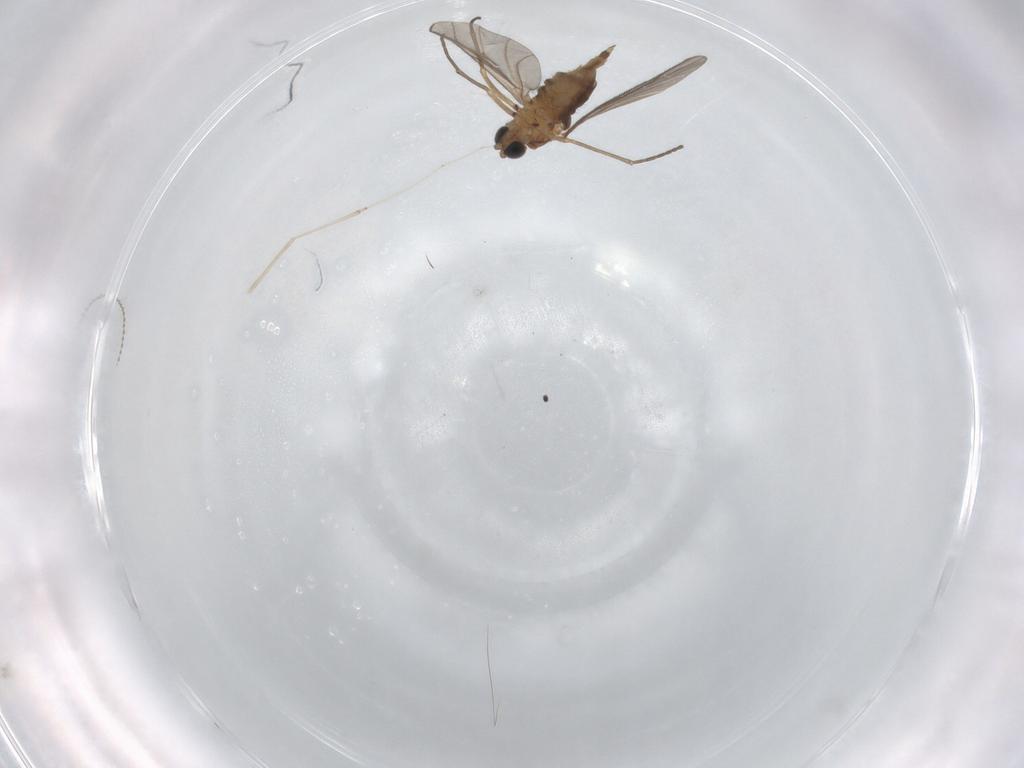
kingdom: Animalia
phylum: Arthropoda
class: Insecta
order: Diptera
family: Sciaridae
